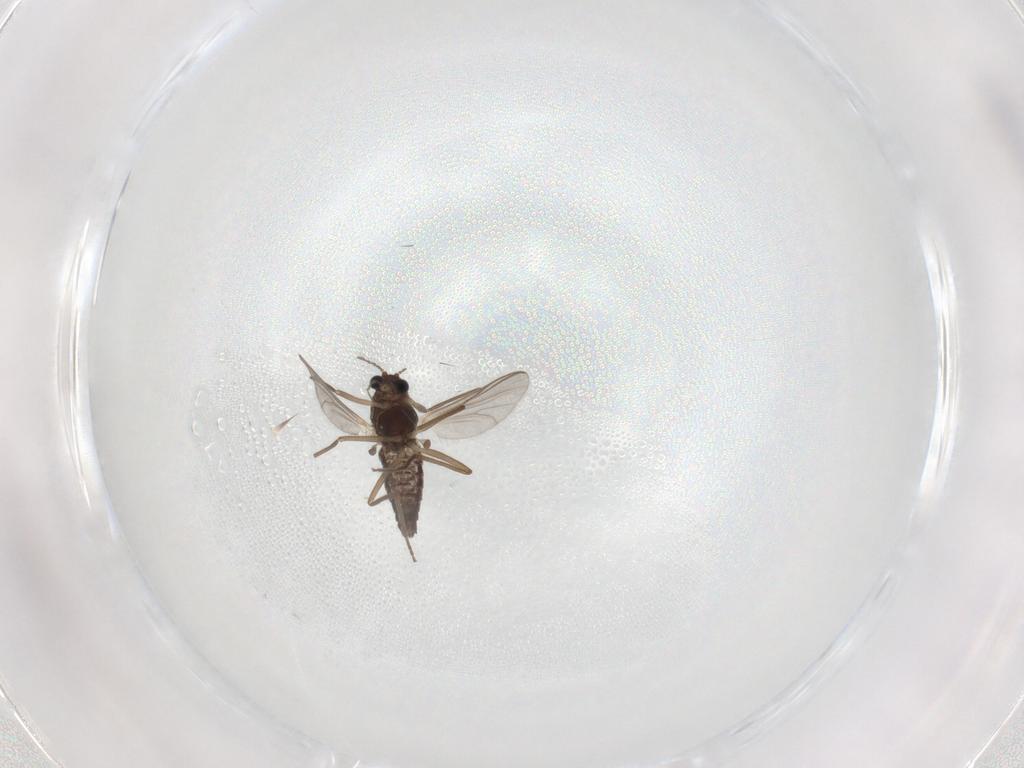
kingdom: Animalia
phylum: Arthropoda
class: Insecta
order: Diptera
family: Chironomidae
